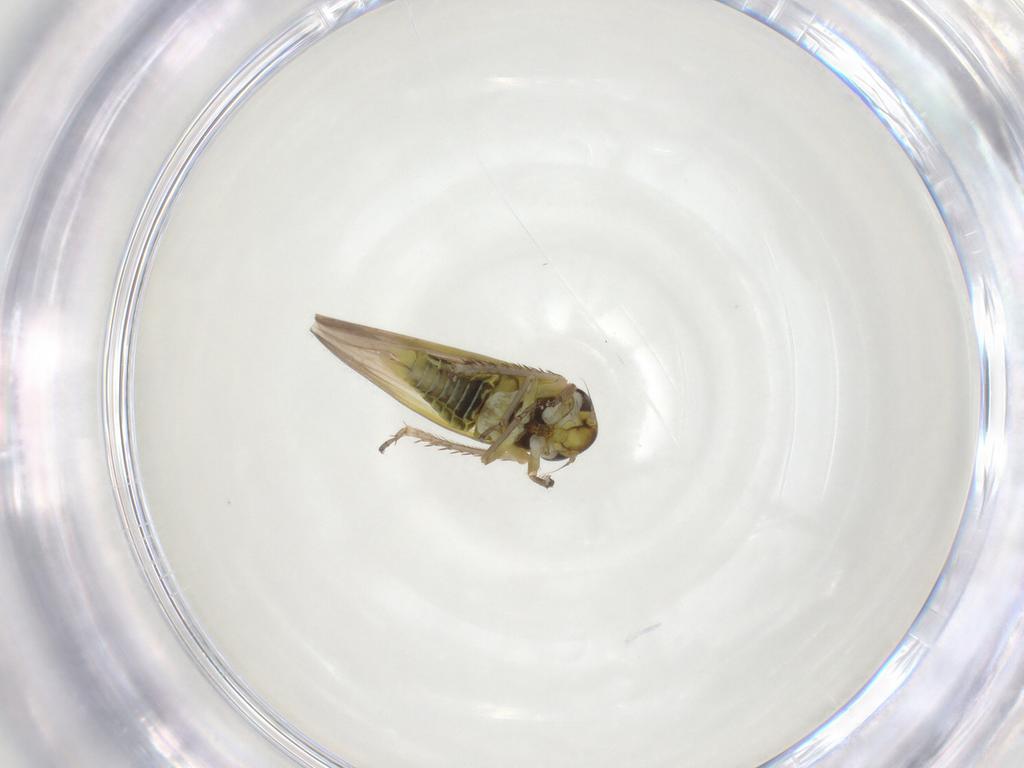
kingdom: Animalia
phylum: Arthropoda
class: Insecta
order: Hemiptera
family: Cicadellidae
